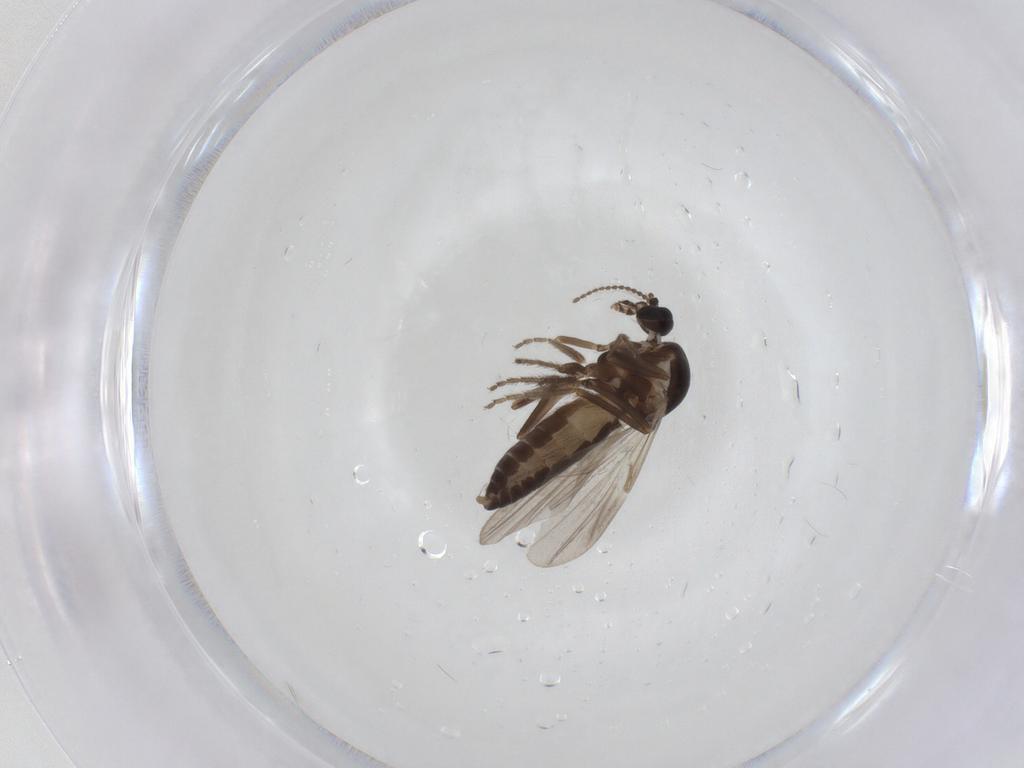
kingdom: Animalia
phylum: Arthropoda
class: Insecta
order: Diptera
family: Ceratopogonidae
